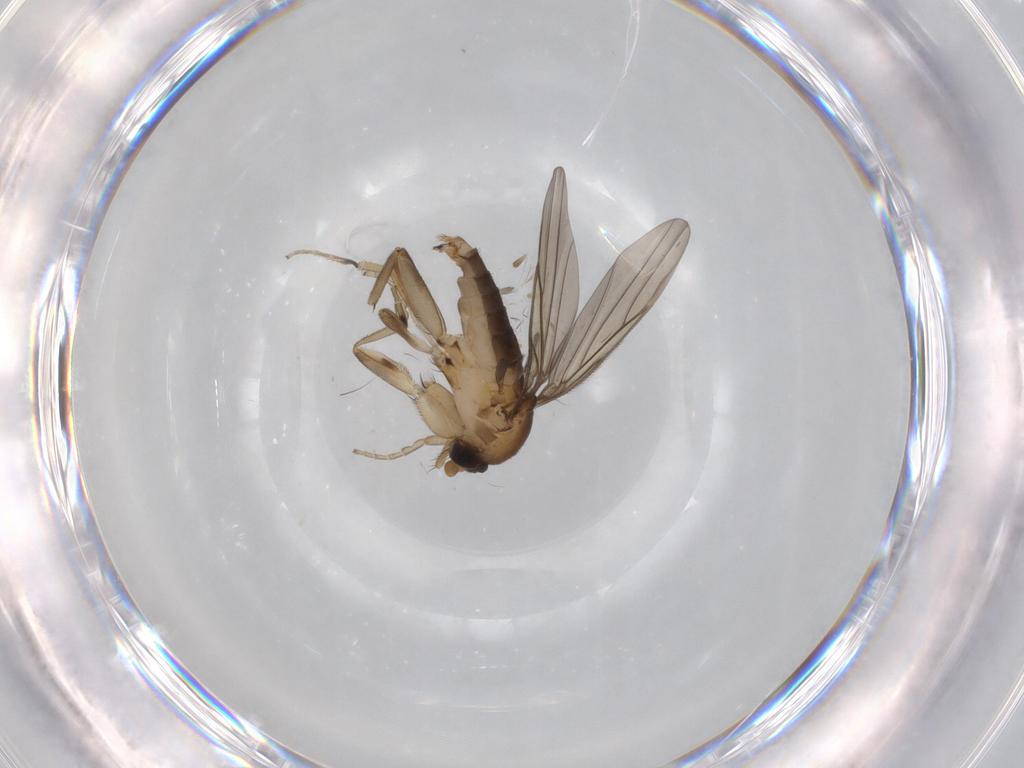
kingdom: Animalia
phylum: Arthropoda
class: Insecta
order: Diptera
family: Phoridae
